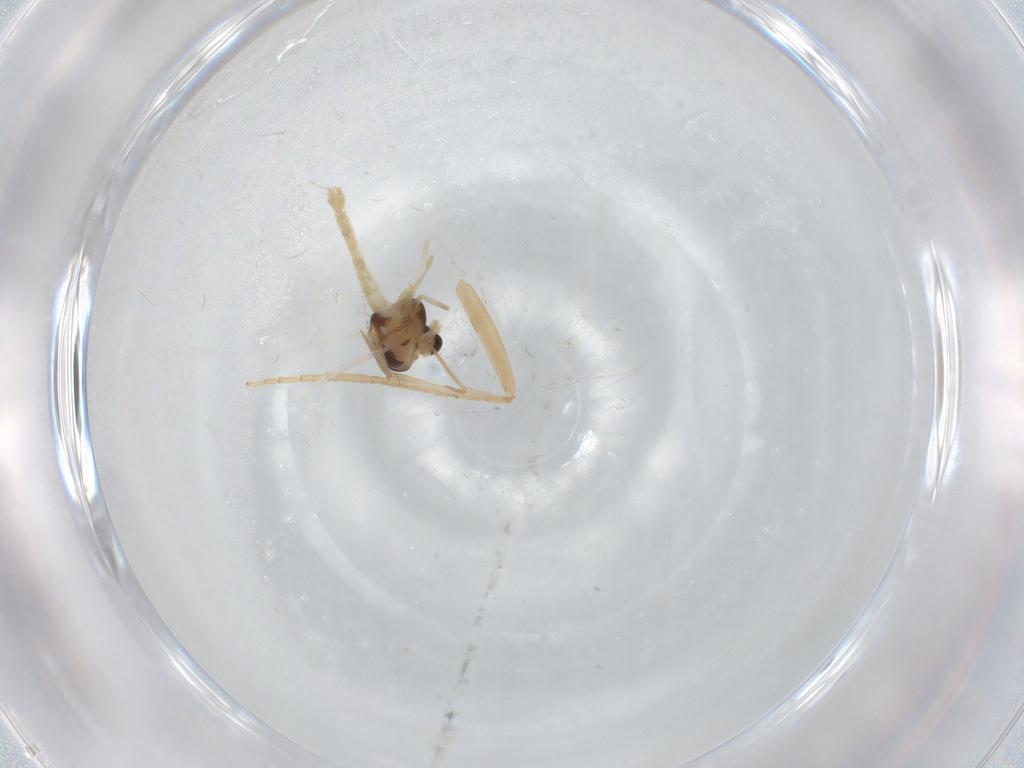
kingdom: Animalia
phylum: Arthropoda
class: Insecta
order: Diptera
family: Chironomidae
